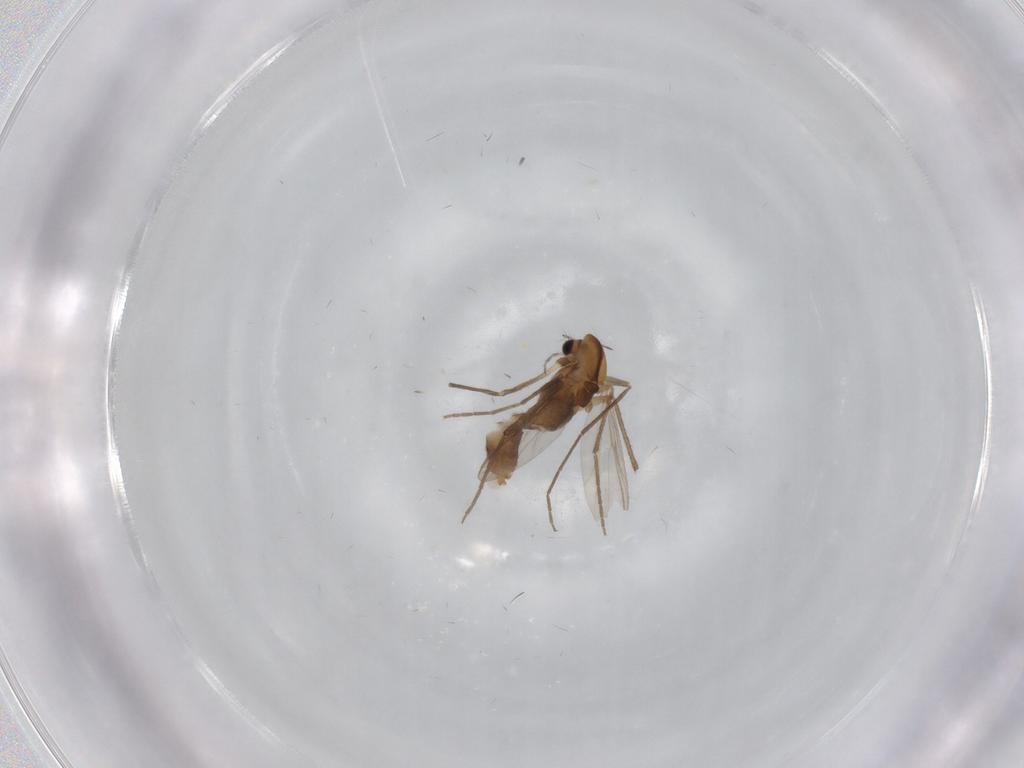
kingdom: Animalia
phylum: Arthropoda
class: Insecta
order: Diptera
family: Chironomidae
